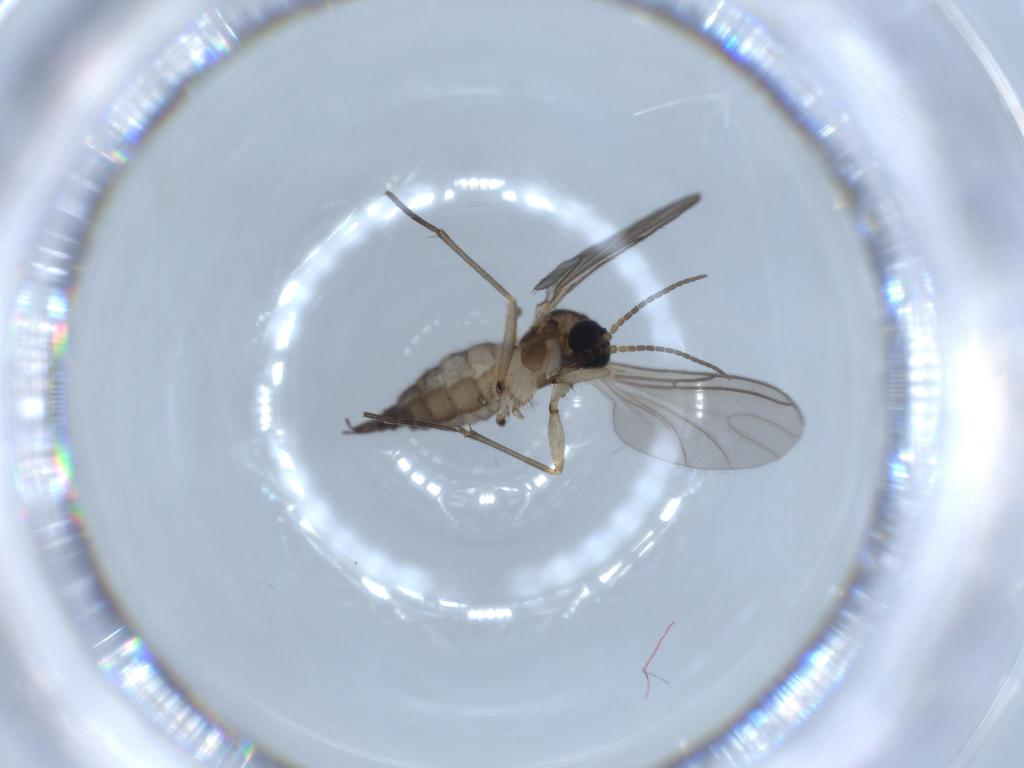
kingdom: Animalia
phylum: Arthropoda
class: Insecta
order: Diptera
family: Sciaridae
